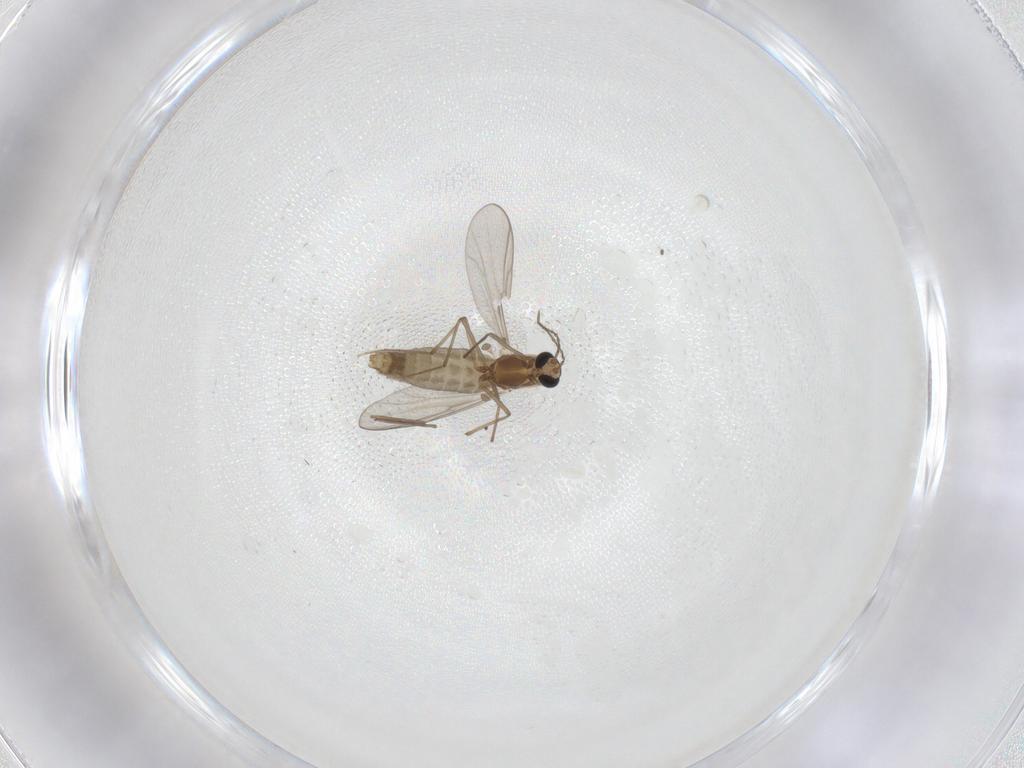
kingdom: Animalia
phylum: Arthropoda
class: Insecta
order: Diptera
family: Chironomidae
